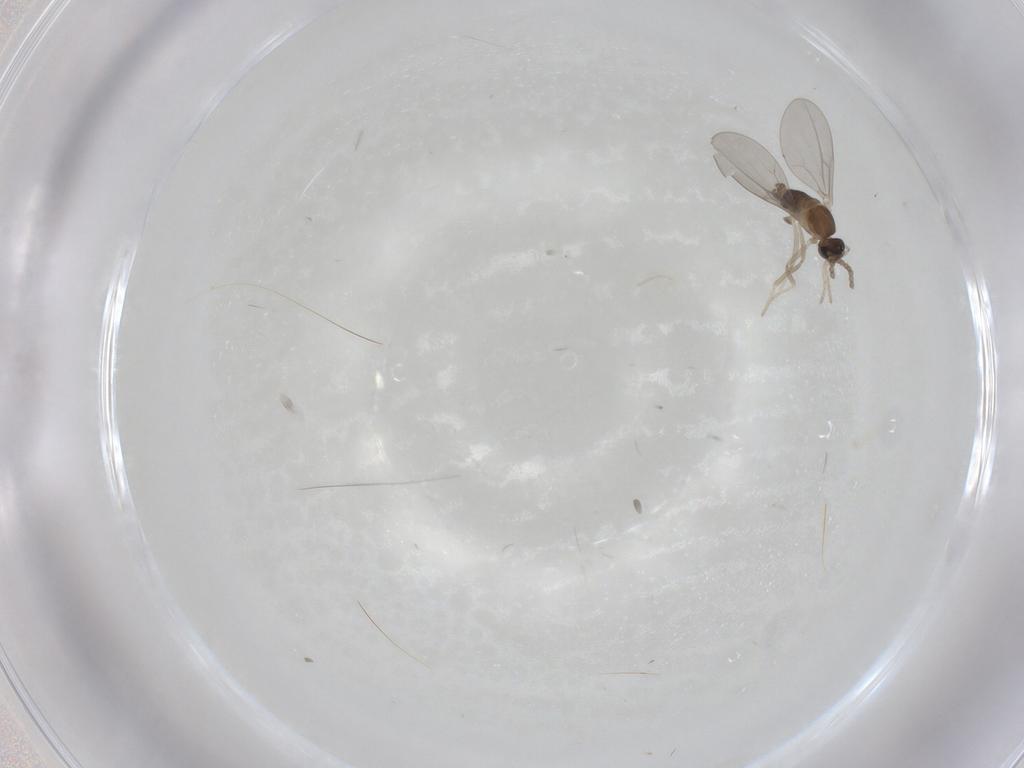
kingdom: Animalia
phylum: Arthropoda
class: Insecta
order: Diptera
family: Cecidomyiidae
